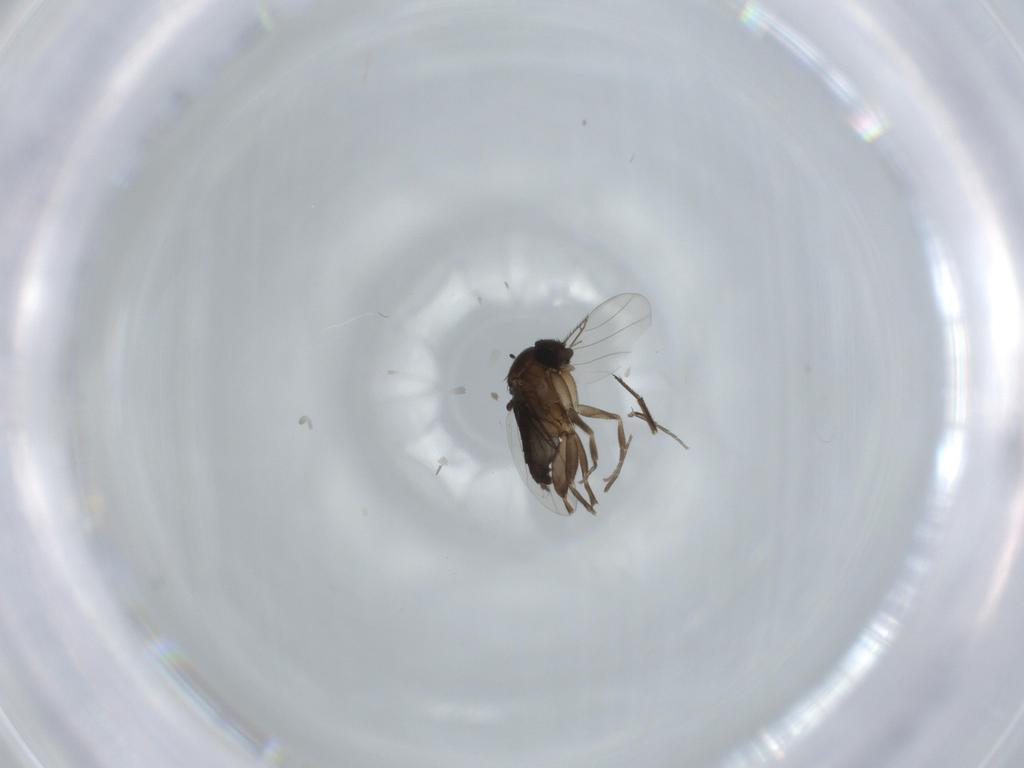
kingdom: Animalia
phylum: Arthropoda
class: Insecta
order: Diptera
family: Phoridae
